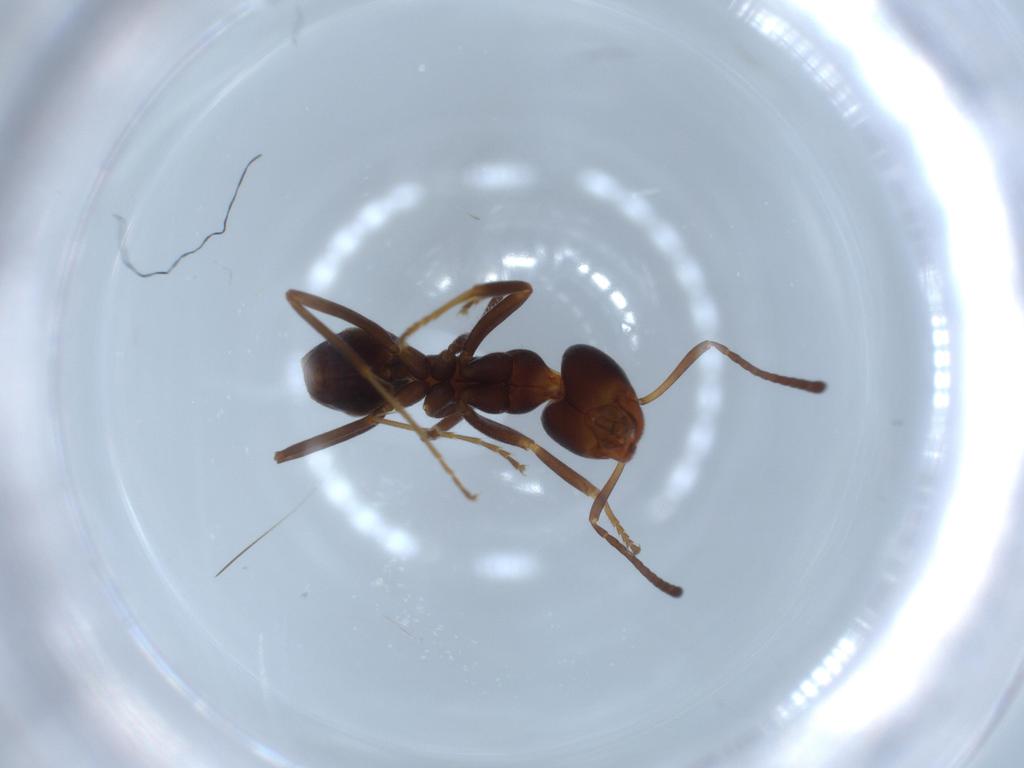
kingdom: Animalia
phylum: Arthropoda
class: Insecta
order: Hymenoptera
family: Formicidae
